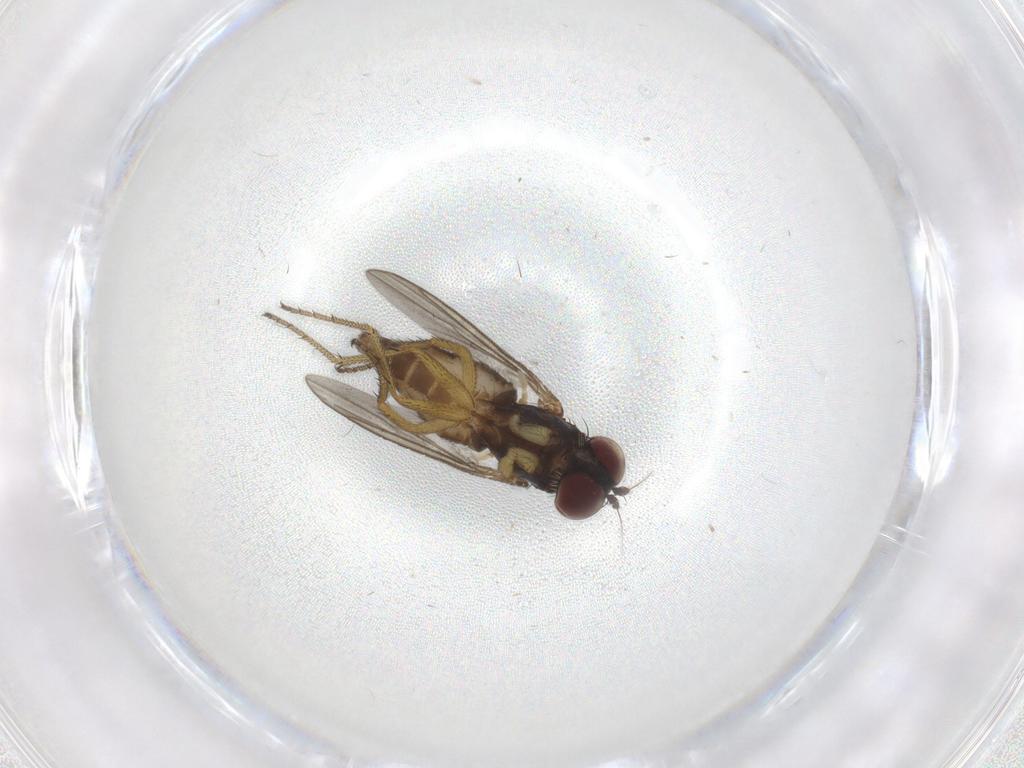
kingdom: Animalia
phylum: Arthropoda
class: Insecta
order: Diptera
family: Dolichopodidae
